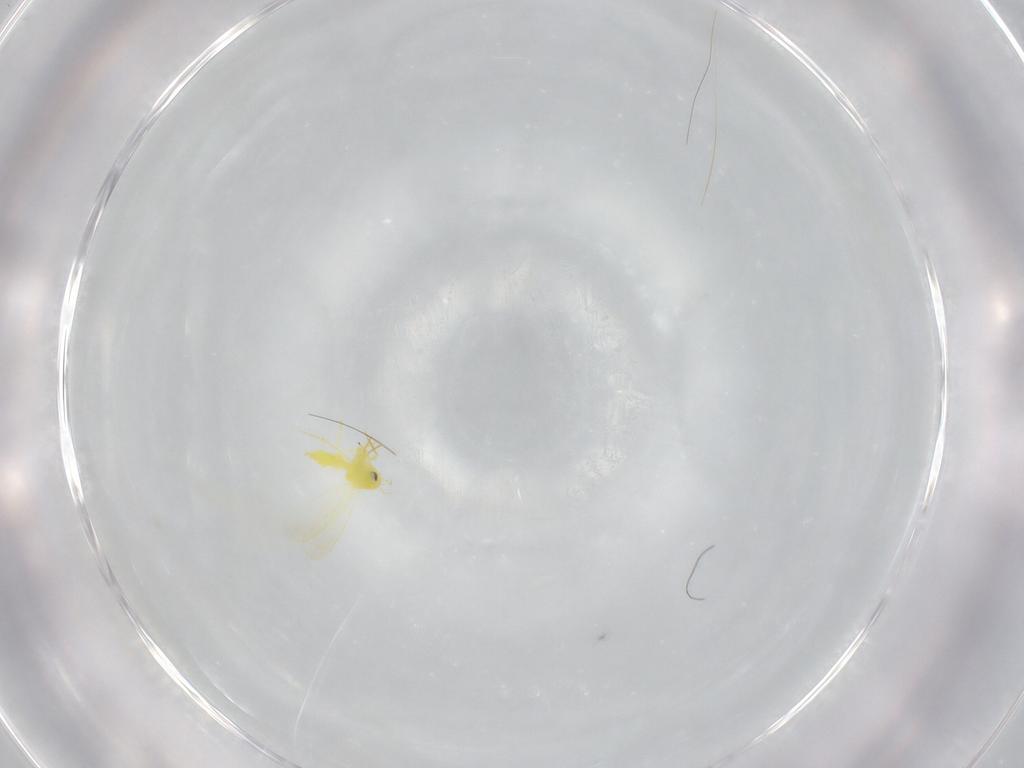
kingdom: Animalia
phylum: Arthropoda
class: Insecta
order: Hemiptera
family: Aleyrodidae
